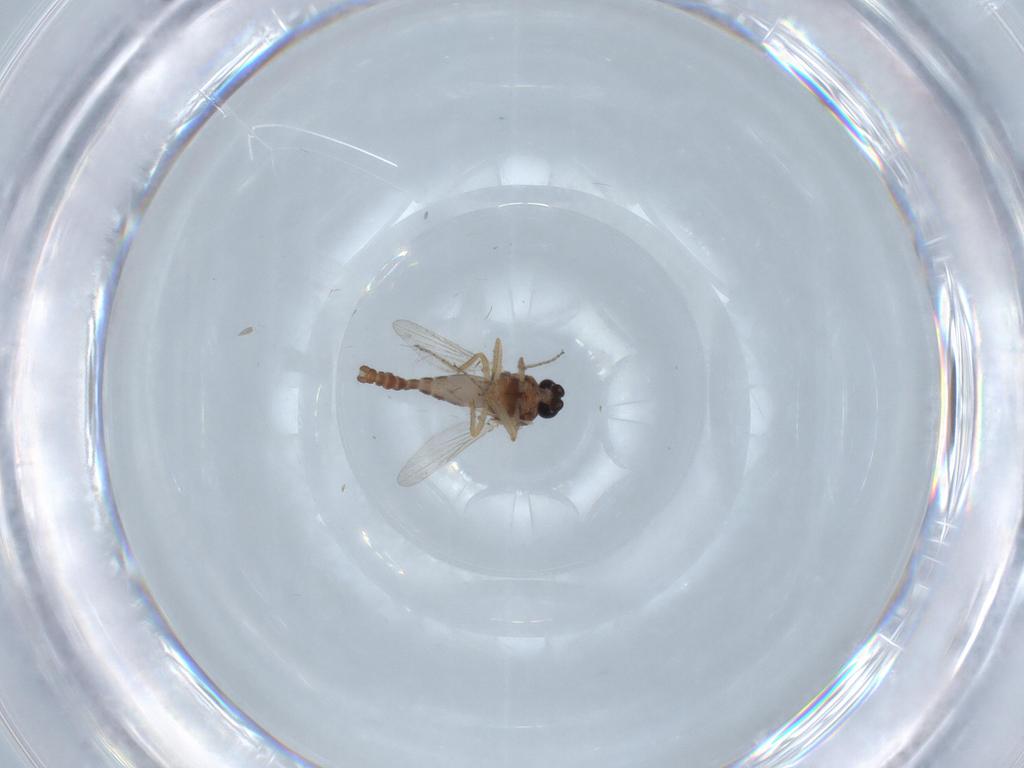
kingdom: Animalia
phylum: Arthropoda
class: Insecta
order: Diptera
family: Ceratopogonidae
